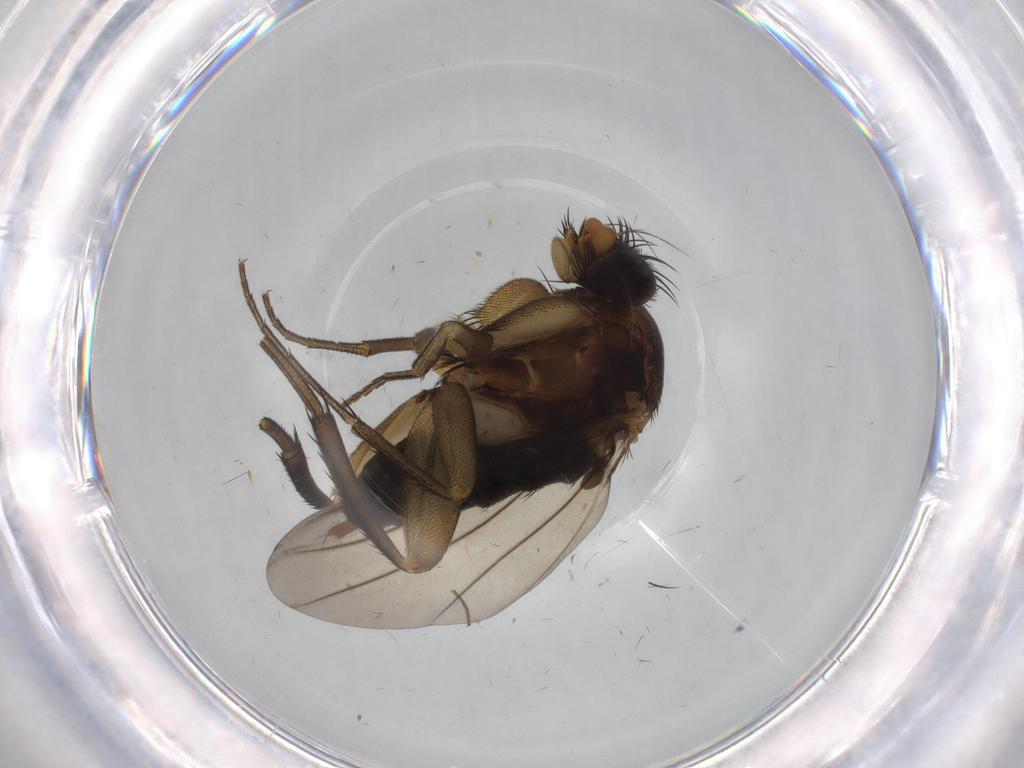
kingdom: Animalia
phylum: Arthropoda
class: Insecta
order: Diptera
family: Phoridae
